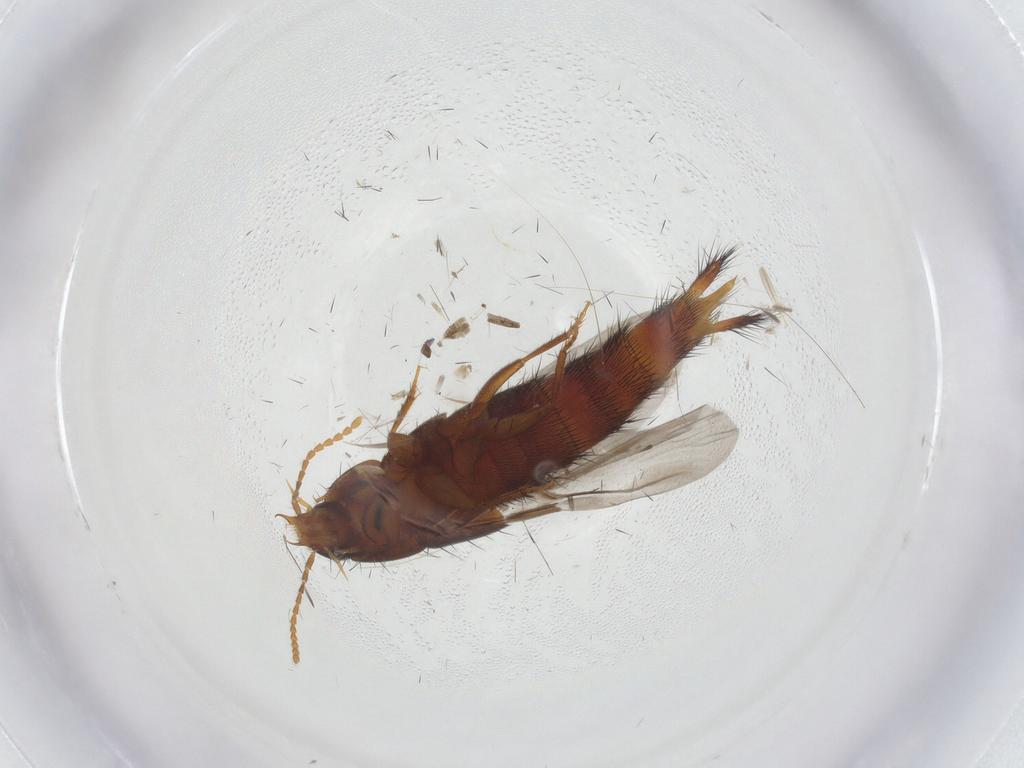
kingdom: Animalia
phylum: Arthropoda
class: Insecta
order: Coleoptera
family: Staphylinidae
